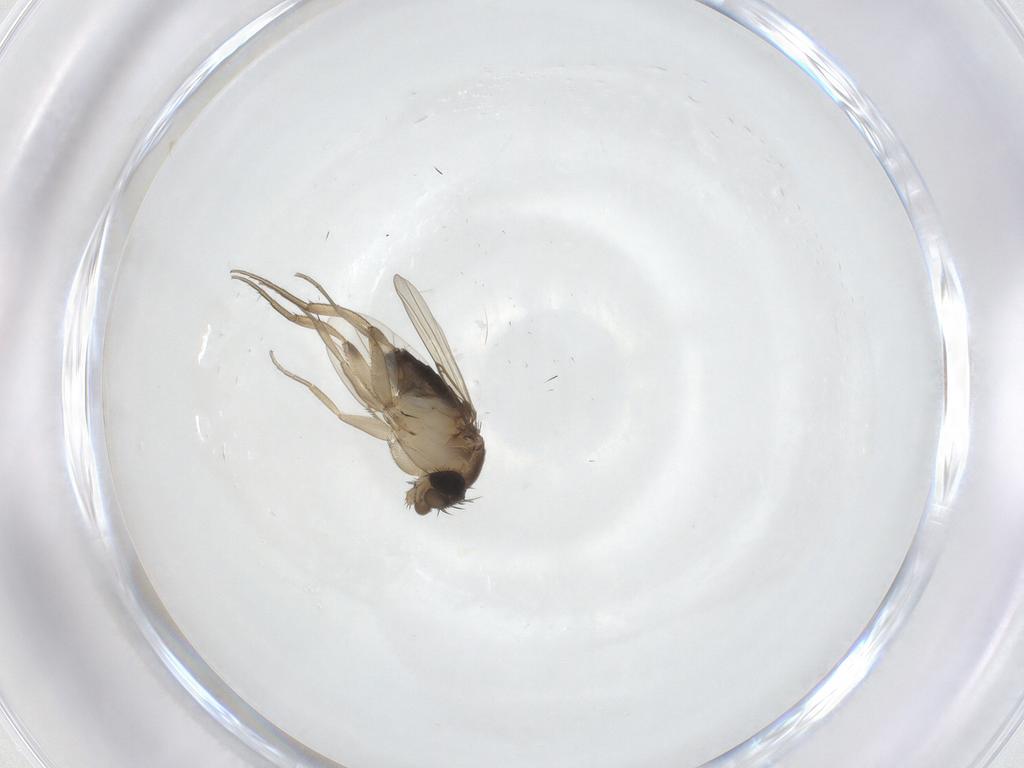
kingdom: Animalia
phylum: Arthropoda
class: Insecta
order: Diptera
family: Phoridae
